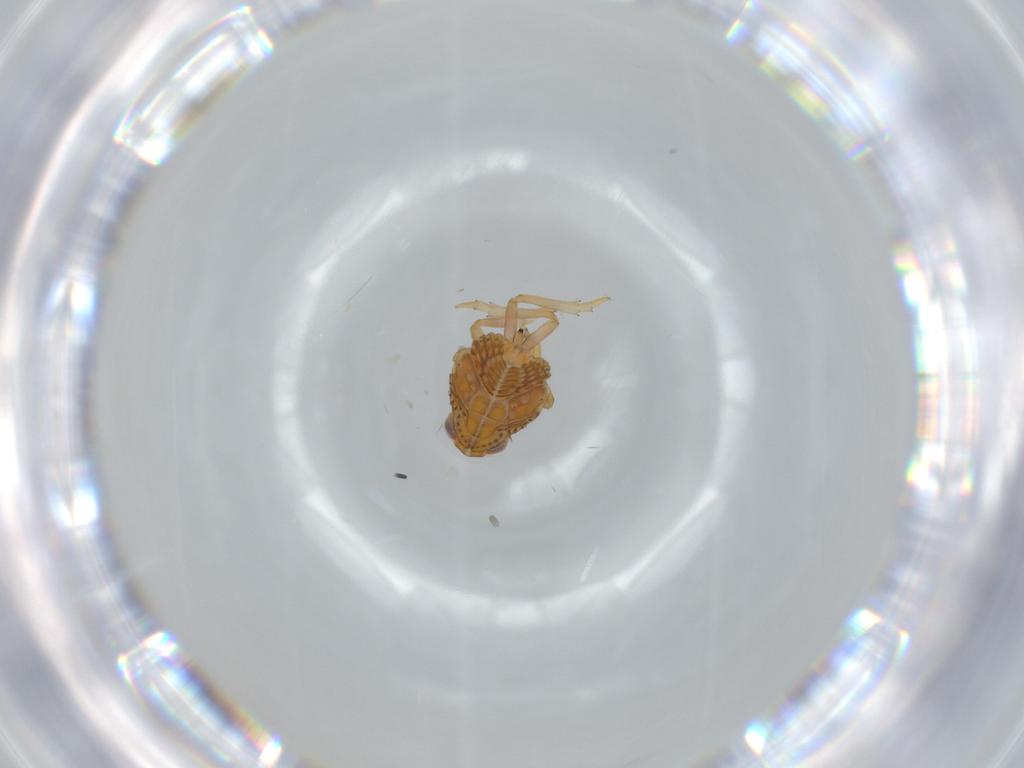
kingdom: Animalia
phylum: Arthropoda
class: Insecta
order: Hemiptera
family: Issidae
